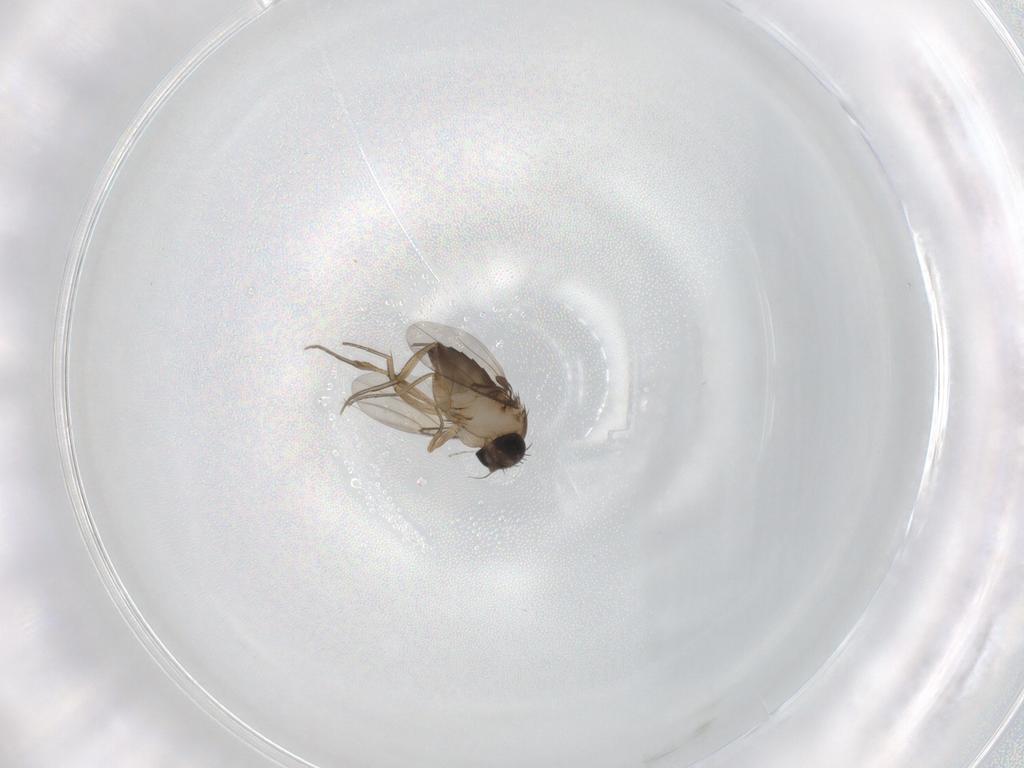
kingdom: Animalia
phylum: Arthropoda
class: Insecta
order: Diptera
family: Phoridae
